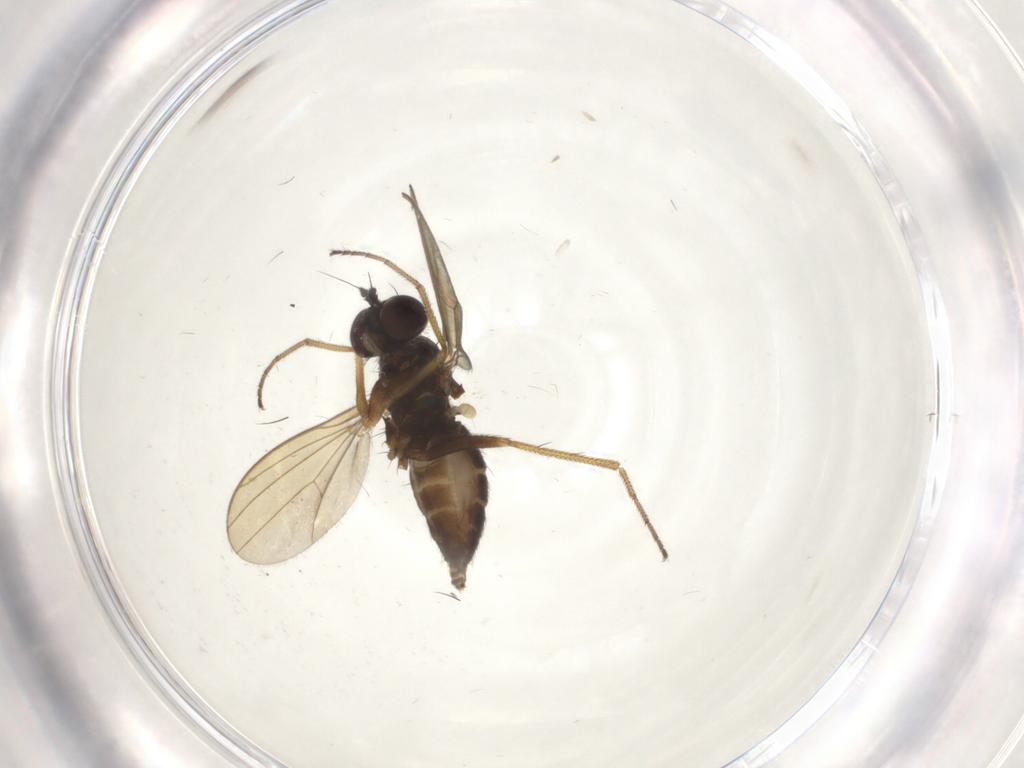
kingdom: Animalia
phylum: Arthropoda
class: Insecta
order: Diptera
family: Dolichopodidae
